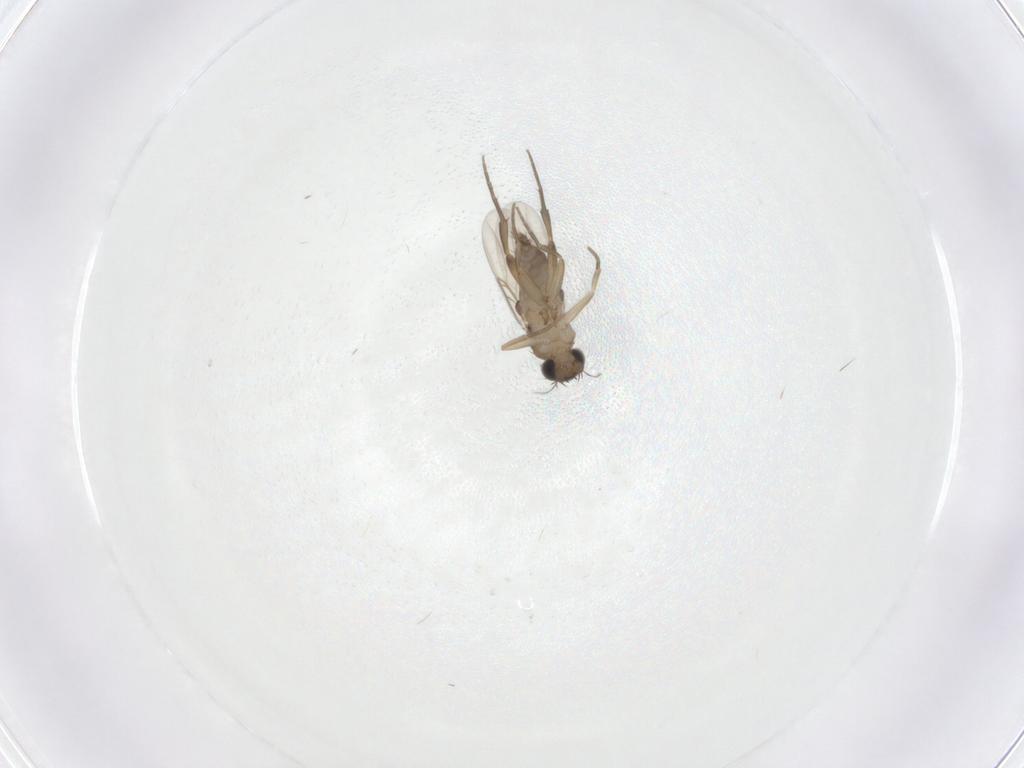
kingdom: Animalia
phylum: Arthropoda
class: Insecta
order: Diptera
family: Phoridae
